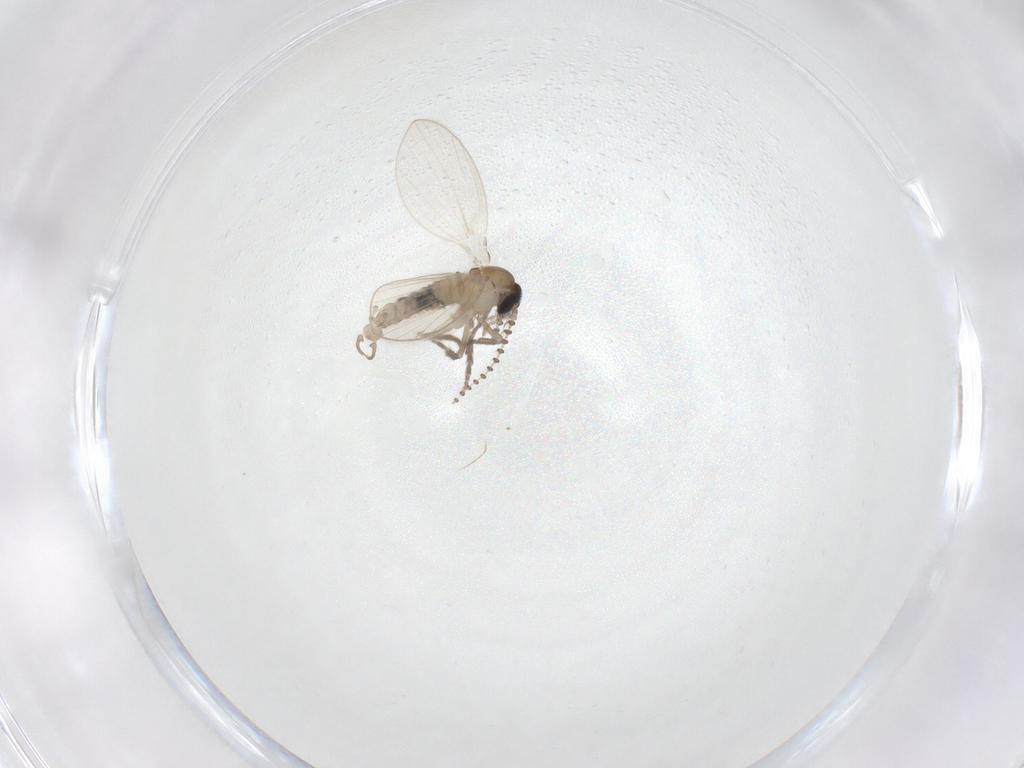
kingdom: Animalia
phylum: Arthropoda
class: Insecta
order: Diptera
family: Psychodidae
